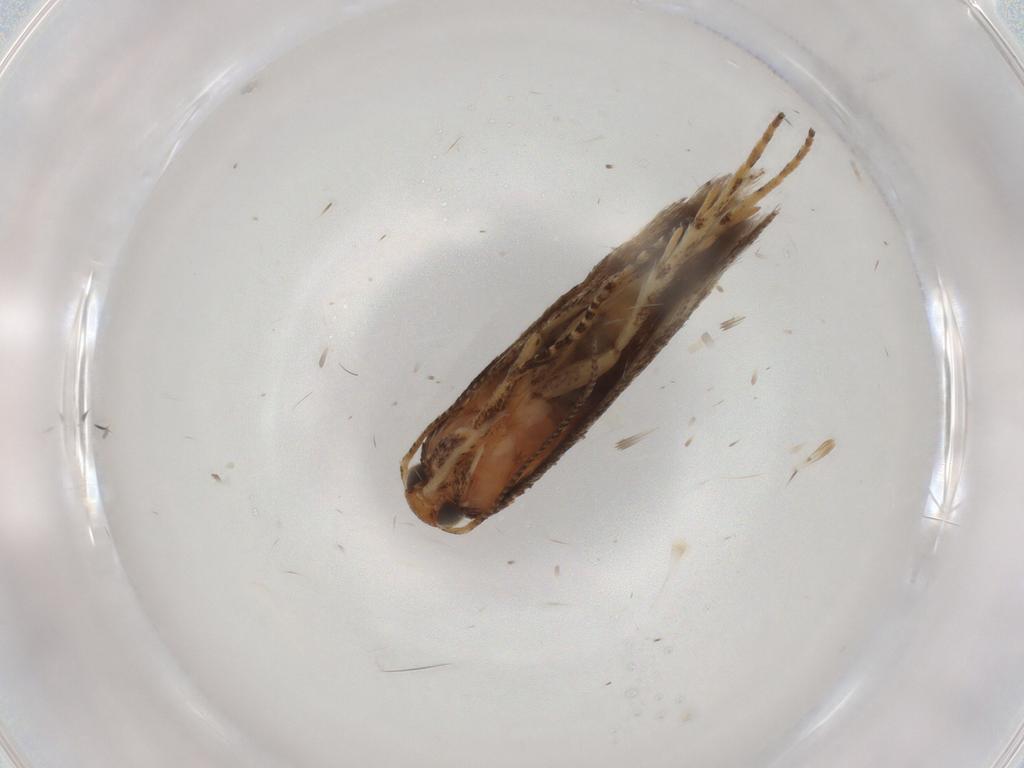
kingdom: Animalia
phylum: Arthropoda
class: Insecta
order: Lepidoptera
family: Gelechiidae
